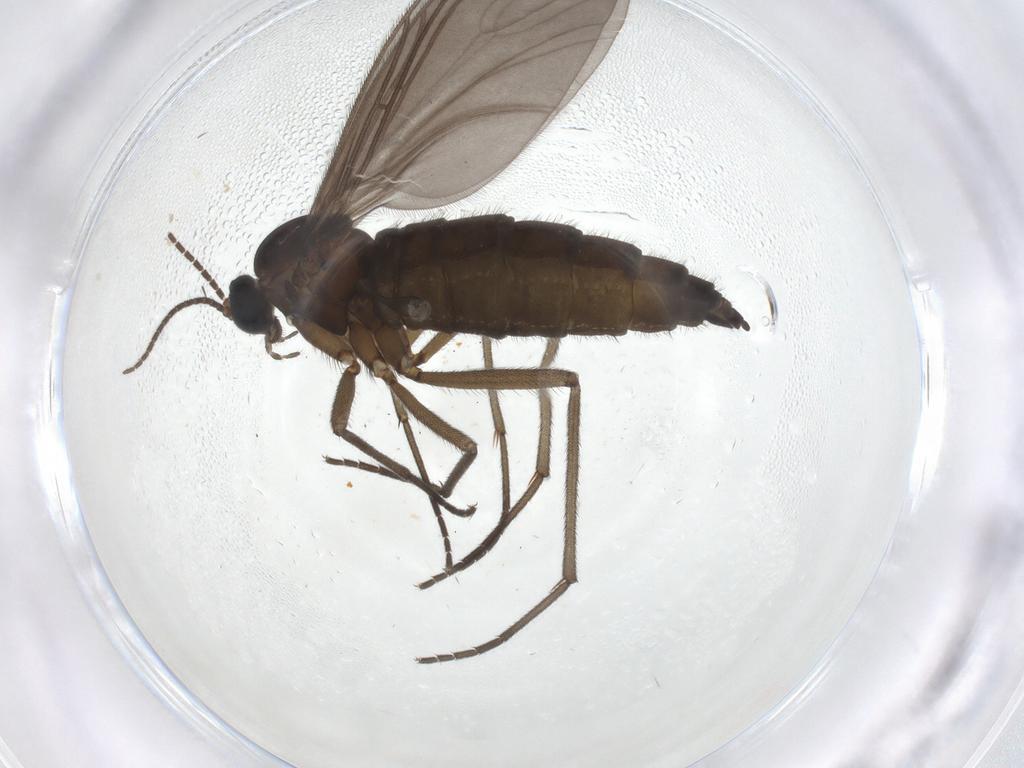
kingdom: Animalia
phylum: Arthropoda
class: Insecta
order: Diptera
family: Sciaridae
